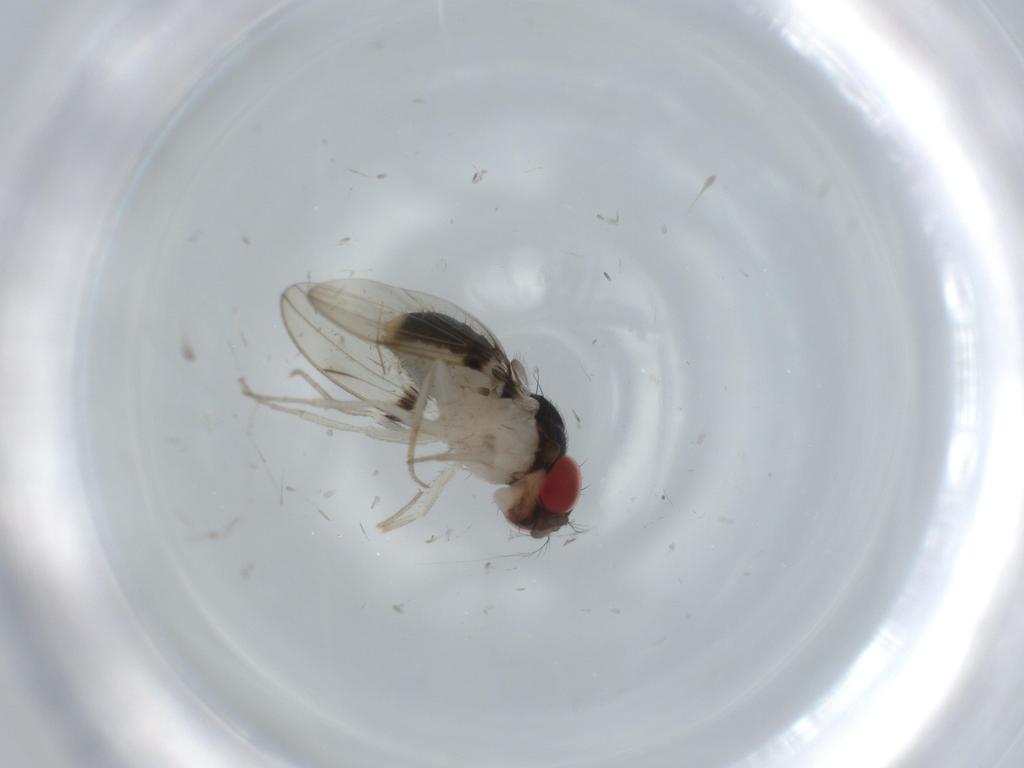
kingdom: Animalia
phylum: Arthropoda
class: Insecta
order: Diptera
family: Drosophilidae
